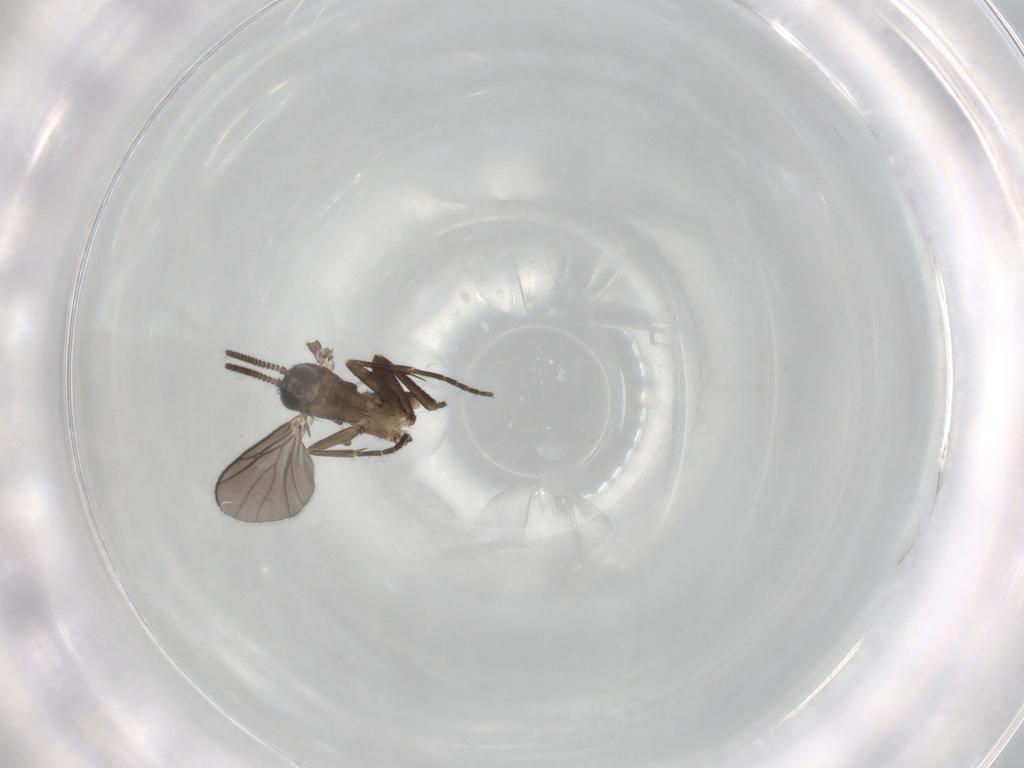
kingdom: Animalia
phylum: Arthropoda
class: Insecta
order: Diptera
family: Mycetophilidae
